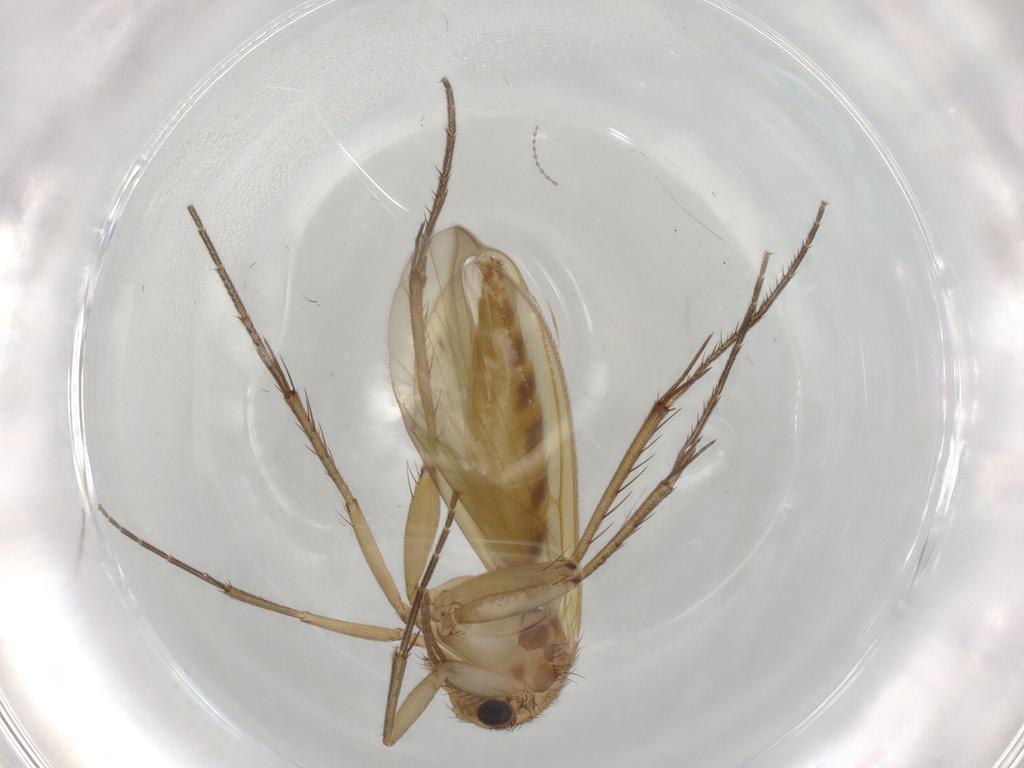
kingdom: Animalia
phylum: Arthropoda
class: Insecta
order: Diptera
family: Mycetophilidae
